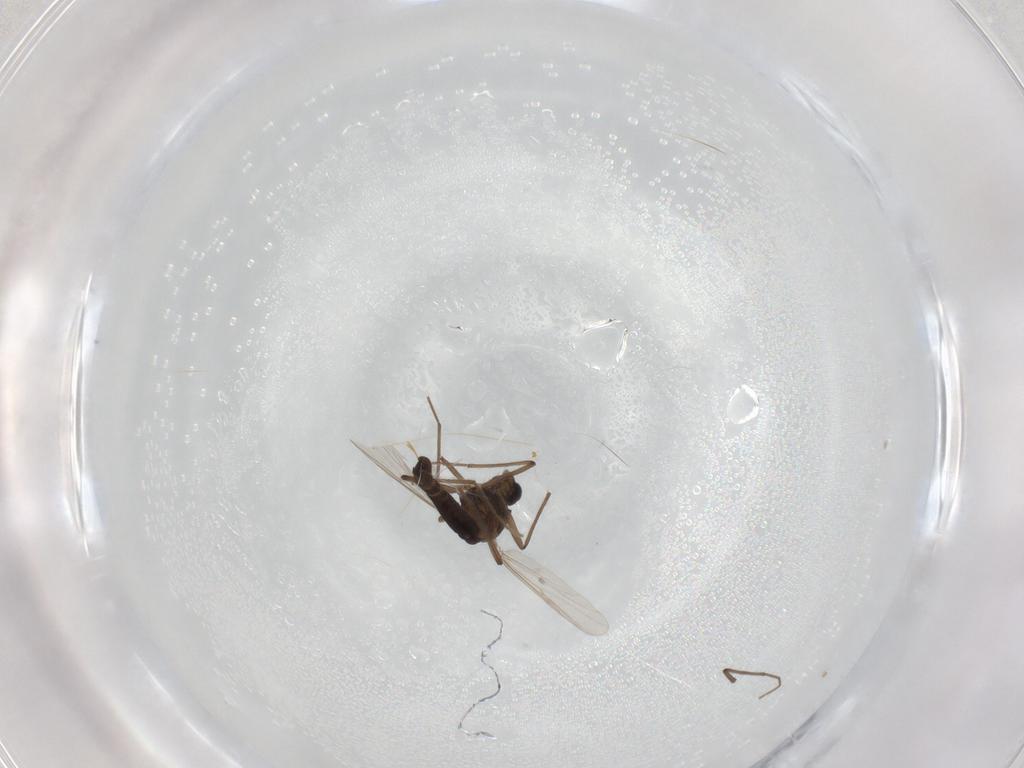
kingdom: Animalia
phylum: Arthropoda
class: Insecta
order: Diptera
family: Chironomidae
